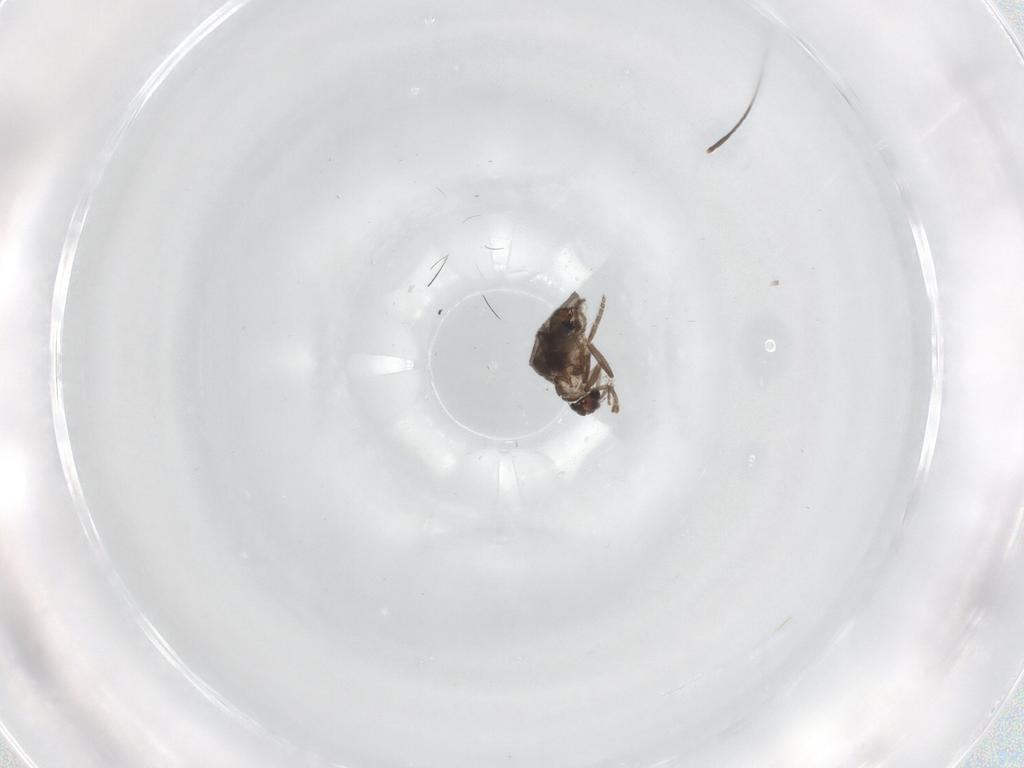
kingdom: Animalia
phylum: Arthropoda
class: Insecta
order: Diptera
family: Phoridae
